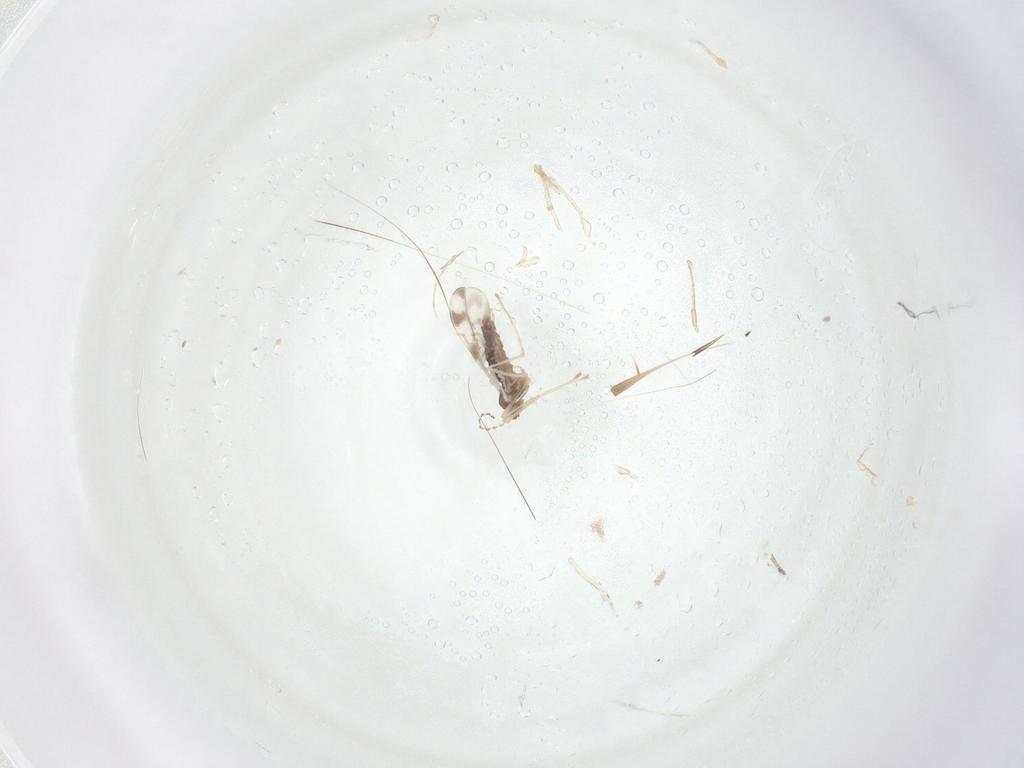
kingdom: Animalia
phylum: Arthropoda
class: Insecta
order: Diptera
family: Cecidomyiidae
